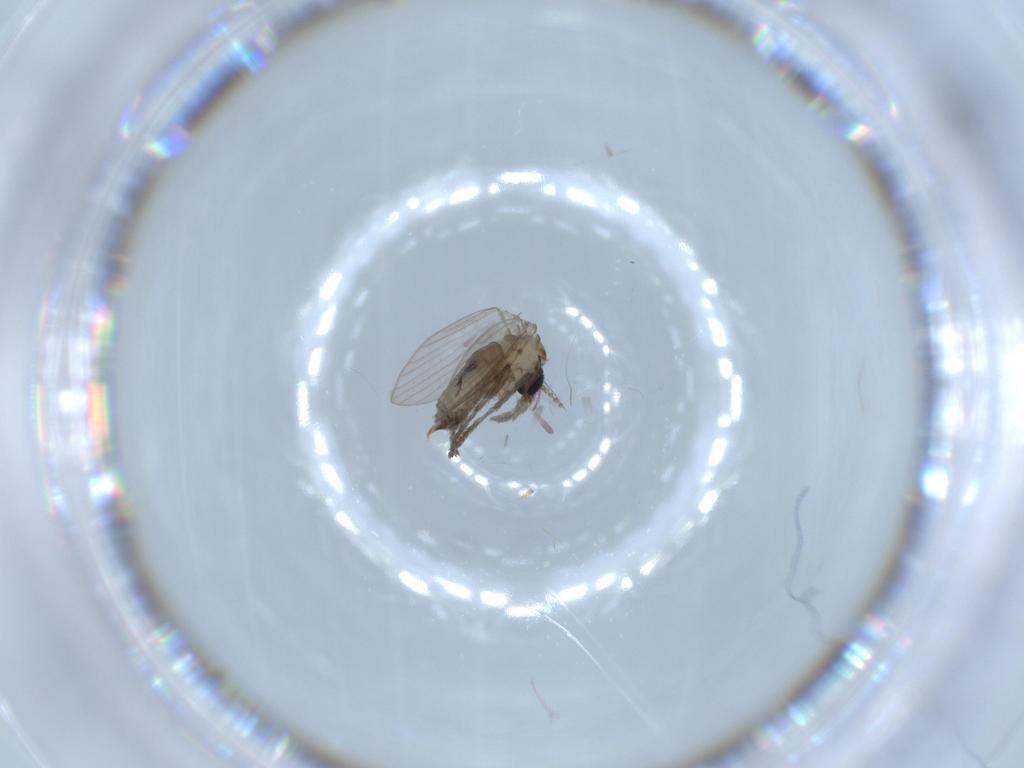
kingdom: Animalia
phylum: Arthropoda
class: Insecta
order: Diptera
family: Psychodidae
